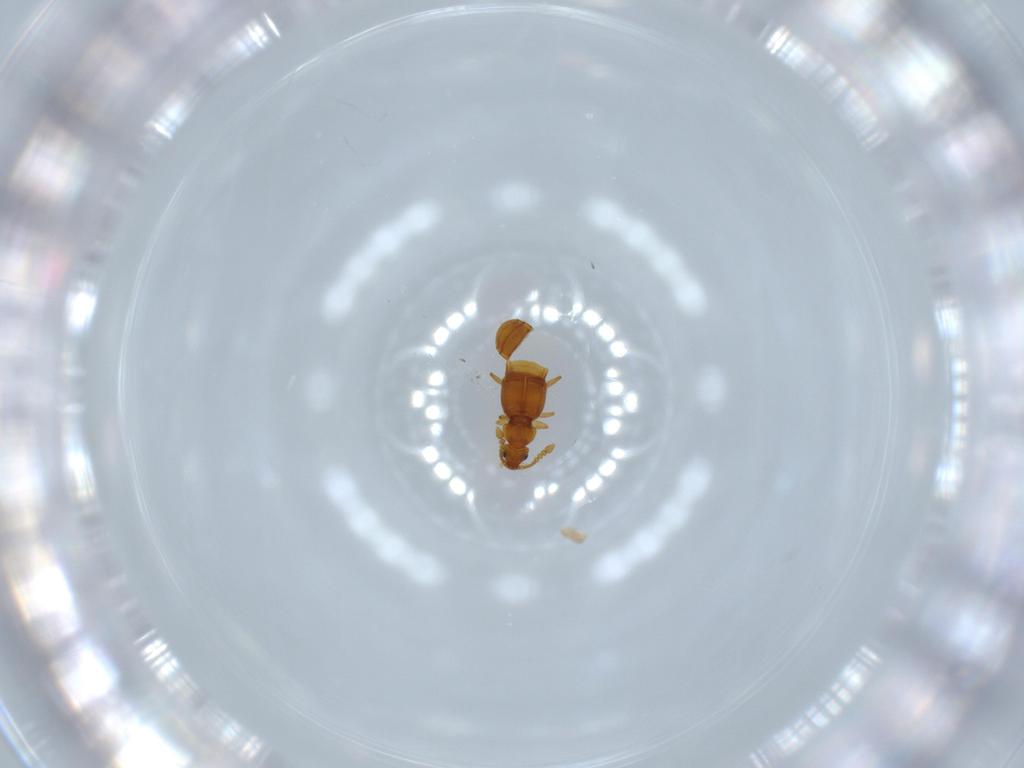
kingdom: Animalia
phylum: Arthropoda
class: Insecta
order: Coleoptera
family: Staphylinidae
